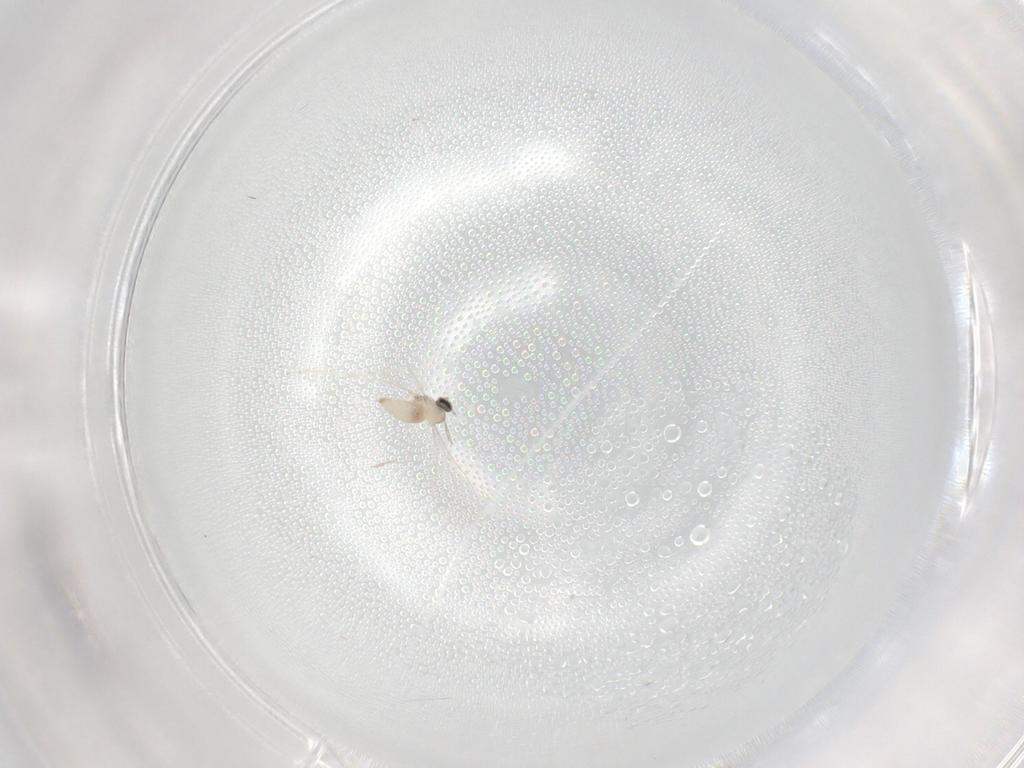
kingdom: Animalia
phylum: Arthropoda
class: Insecta
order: Diptera
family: Cecidomyiidae
